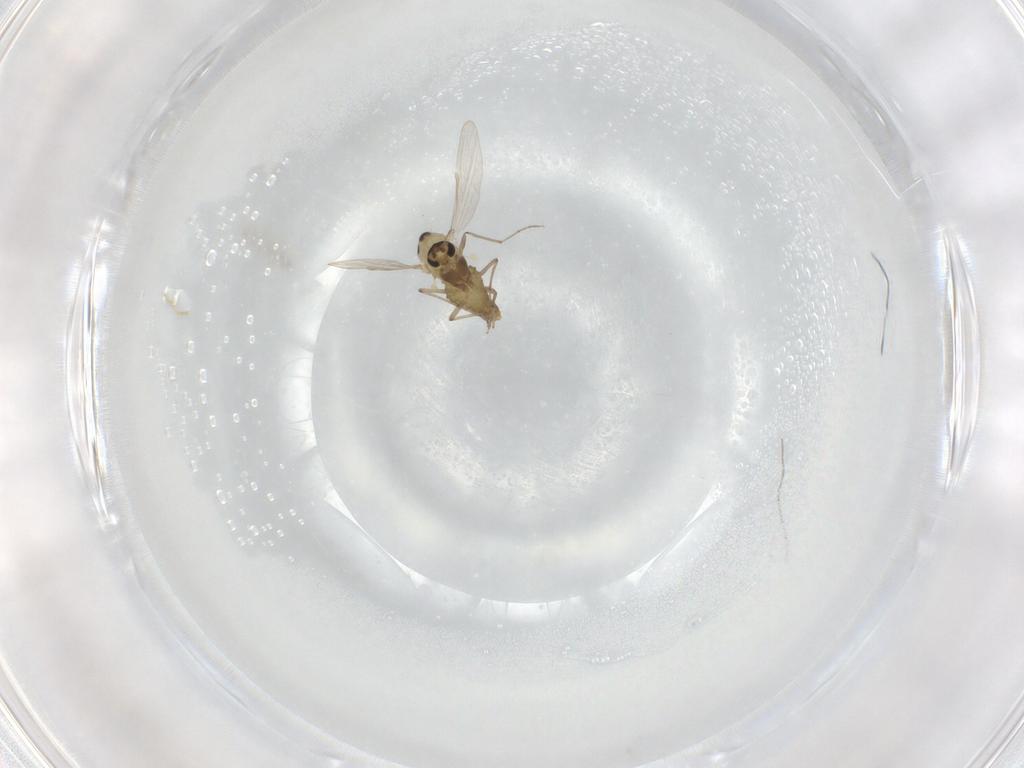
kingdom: Animalia
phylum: Arthropoda
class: Insecta
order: Diptera
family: Chironomidae
